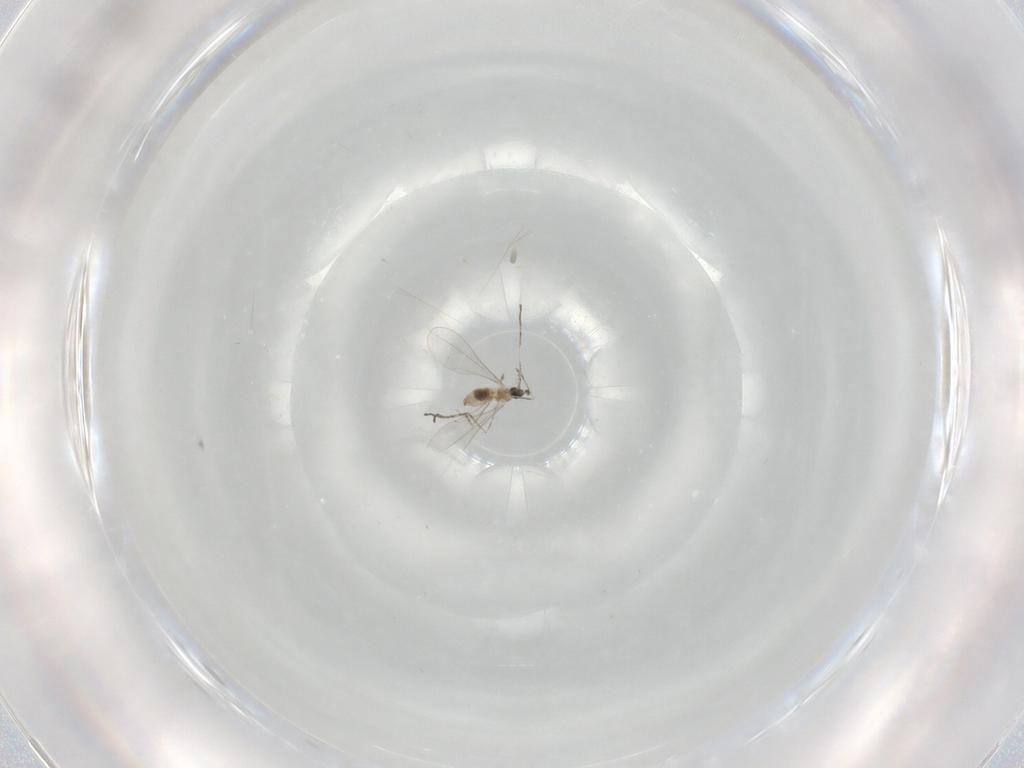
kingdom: Animalia
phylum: Arthropoda
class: Insecta
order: Diptera
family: Cecidomyiidae
